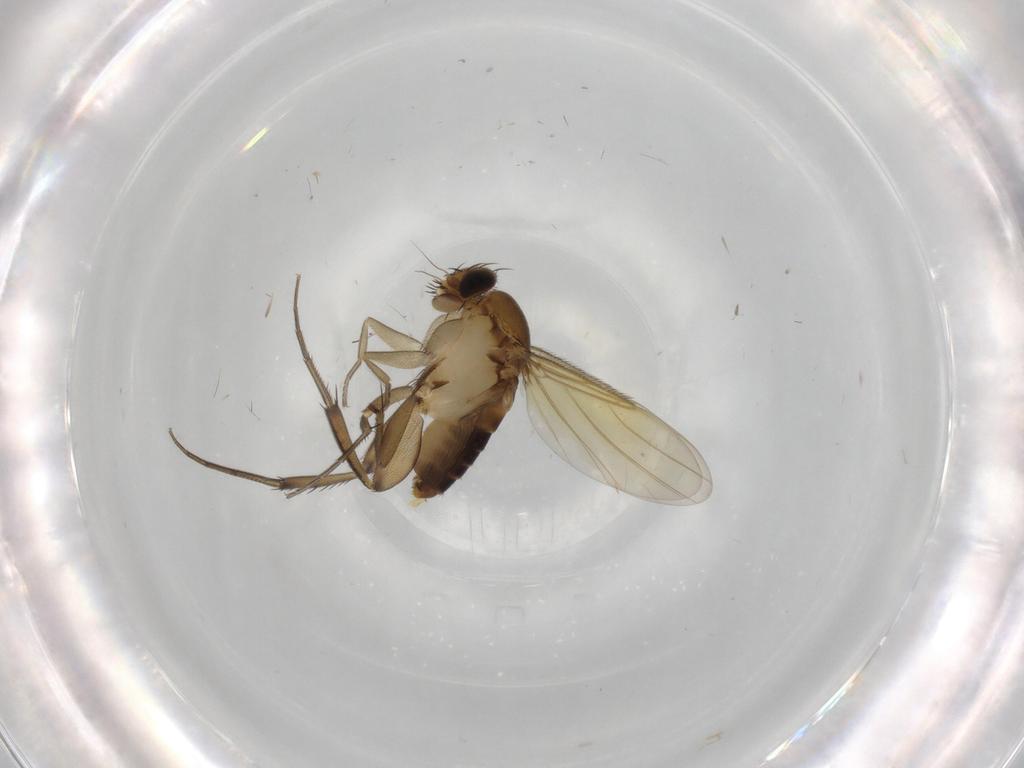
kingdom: Animalia
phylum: Arthropoda
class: Insecta
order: Diptera
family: Phoridae
